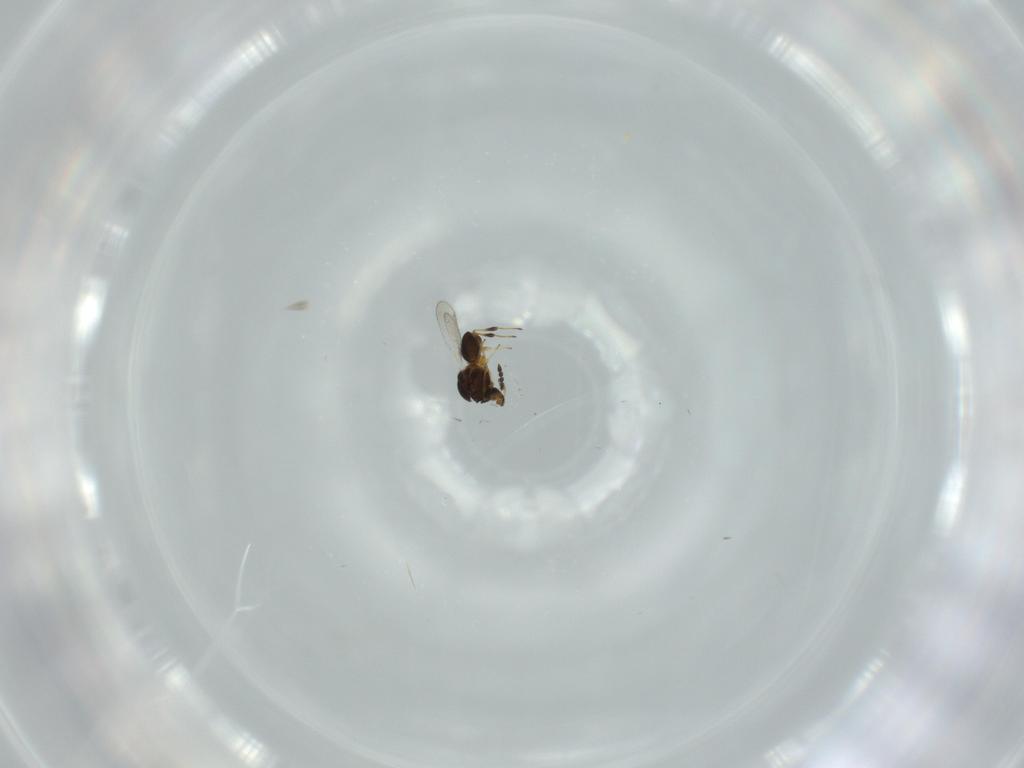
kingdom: Animalia
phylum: Arthropoda
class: Insecta
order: Hymenoptera
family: Platygastridae
